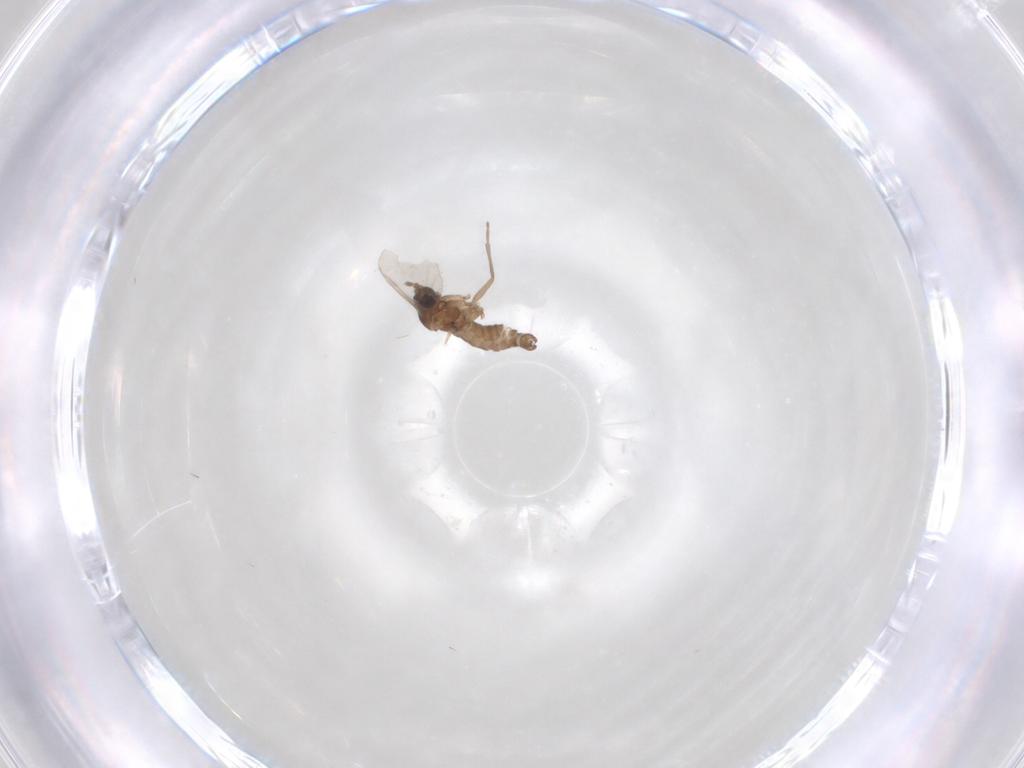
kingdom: Animalia
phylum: Arthropoda
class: Insecta
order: Diptera
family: Sciaridae
